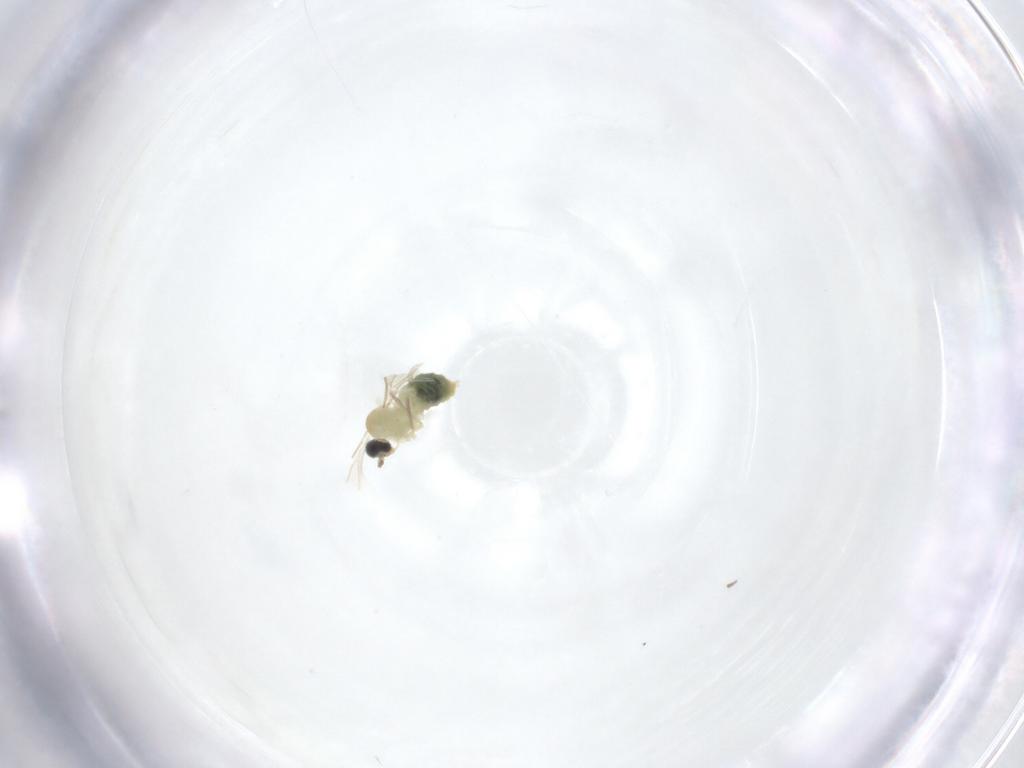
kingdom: Animalia
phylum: Arthropoda
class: Insecta
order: Diptera
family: Cecidomyiidae
